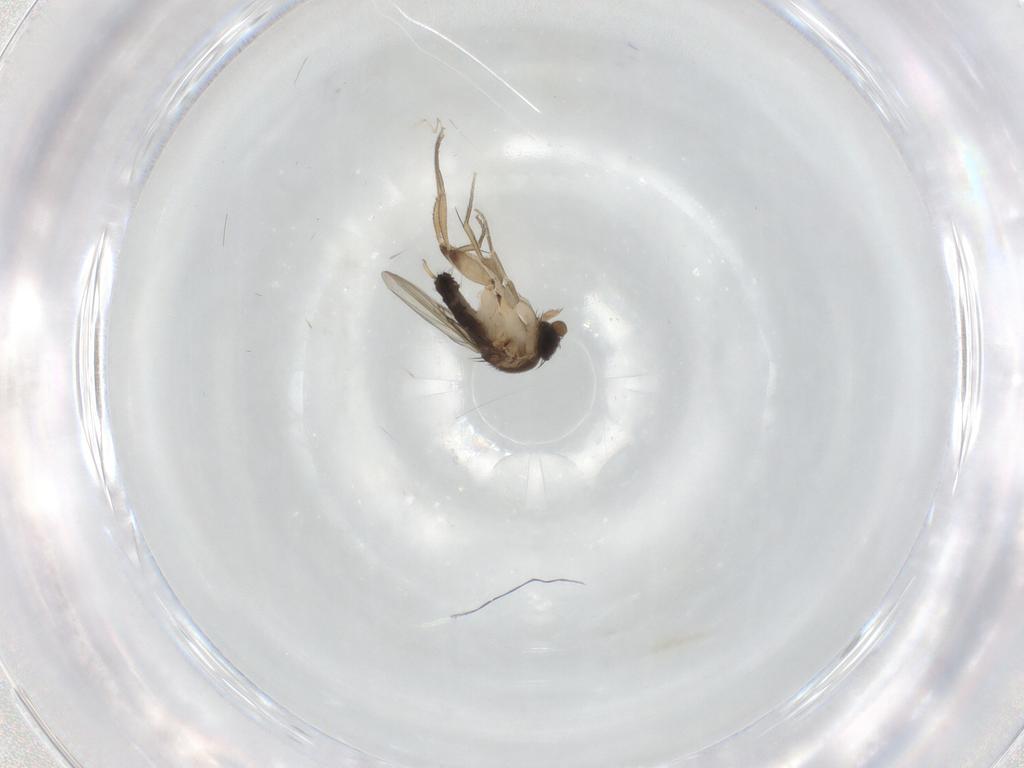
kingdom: Animalia
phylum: Arthropoda
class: Insecta
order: Diptera
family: Phoridae
